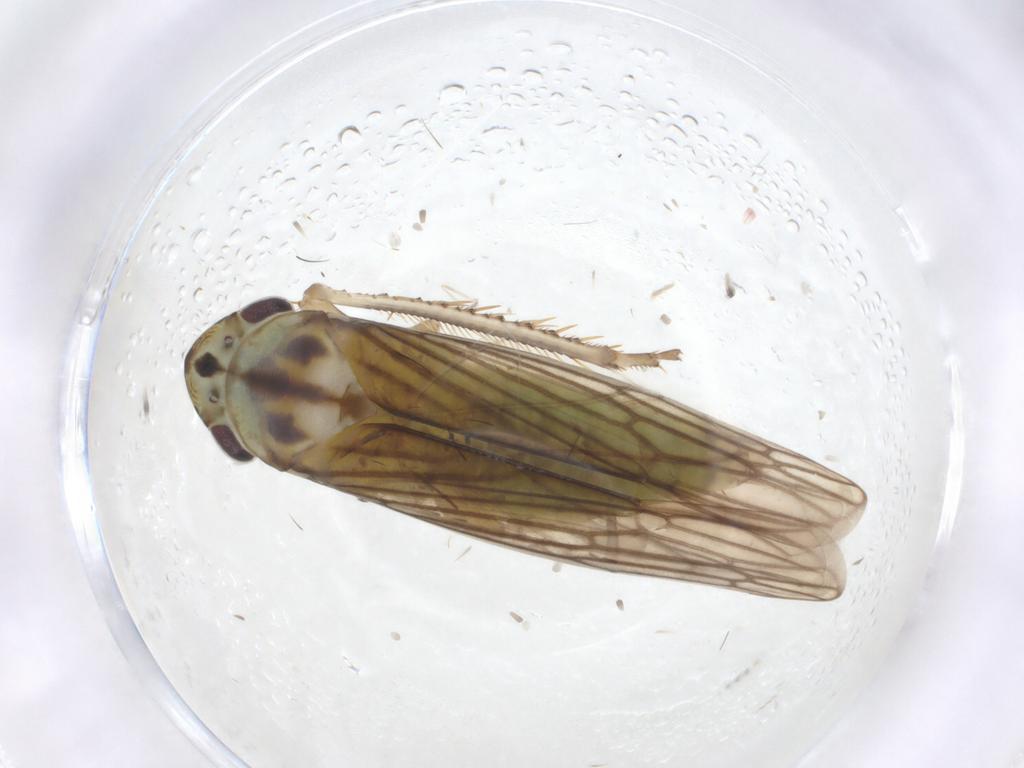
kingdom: Animalia
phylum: Arthropoda
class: Insecta
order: Hemiptera
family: Cicadellidae
